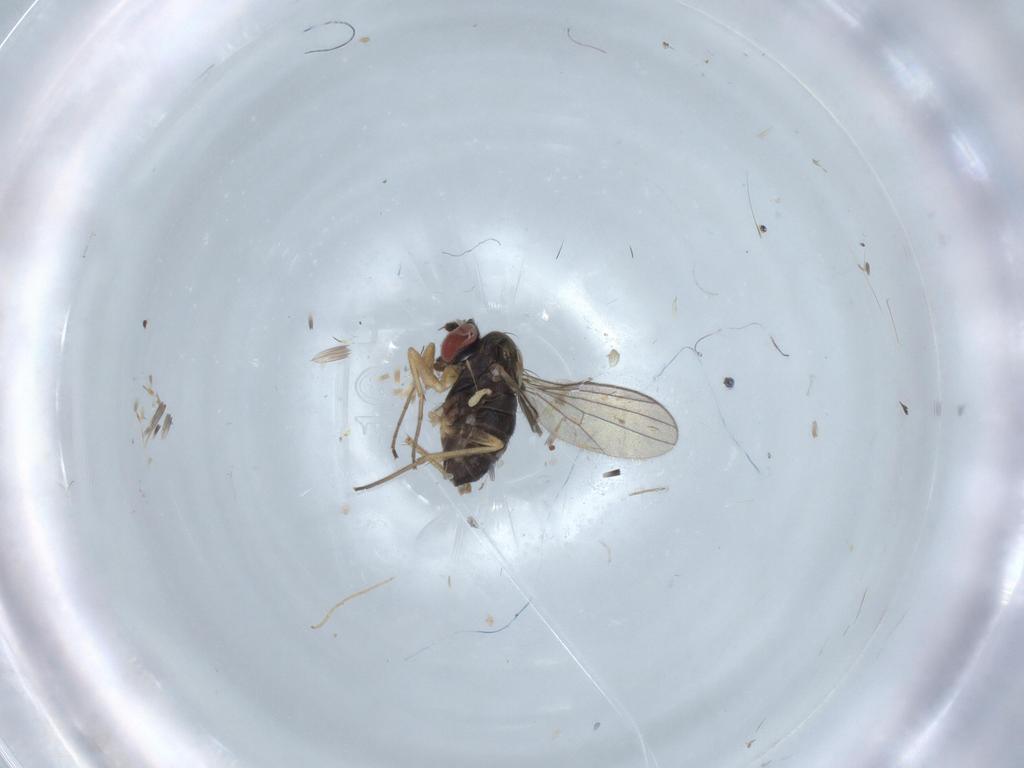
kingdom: Animalia
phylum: Arthropoda
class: Insecta
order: Diptera
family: Dolichopodidae
